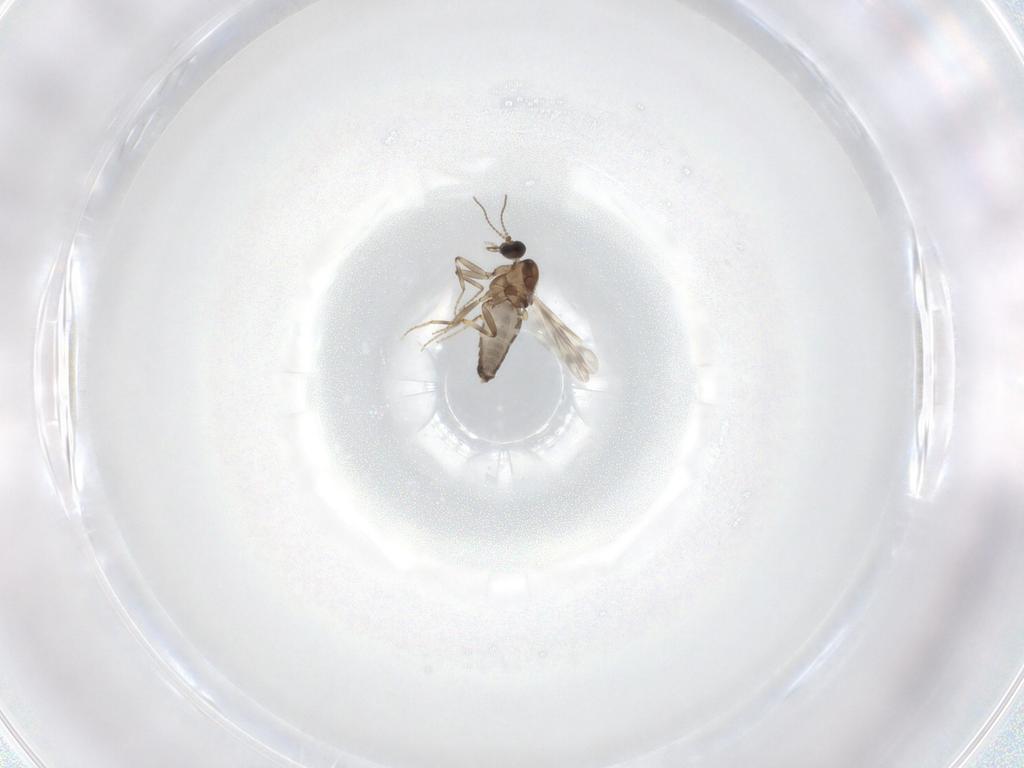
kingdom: Animalia
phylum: Arthropoda
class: Insecta
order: Diptera
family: Ceratopogonidae
